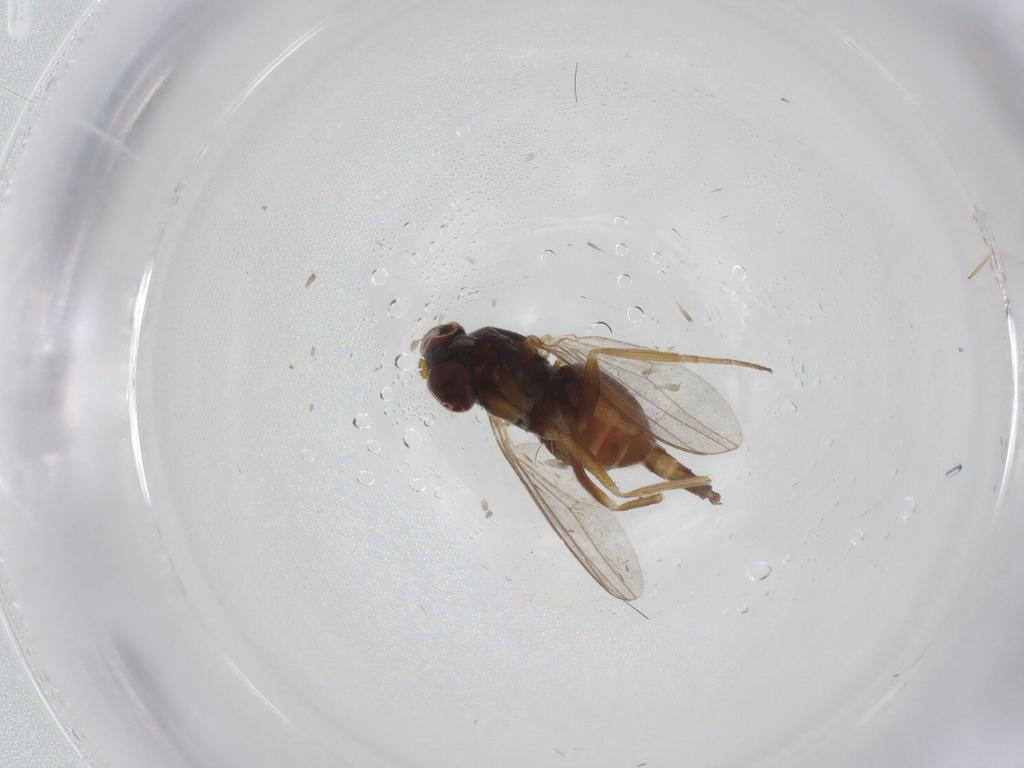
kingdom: Animalia
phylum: Arthropoda
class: Insecta
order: Diptera
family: Dolichopodidae
